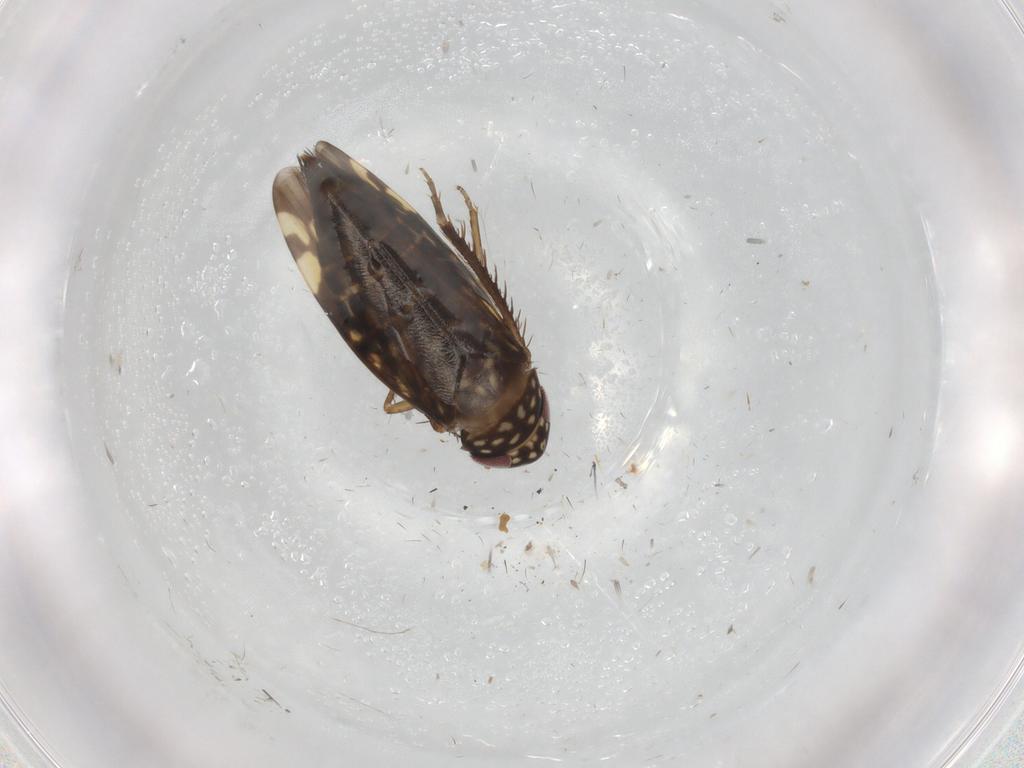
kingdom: Animalia
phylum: Arthropoda
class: Insecta
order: Hemiptera
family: Cicadellidae
